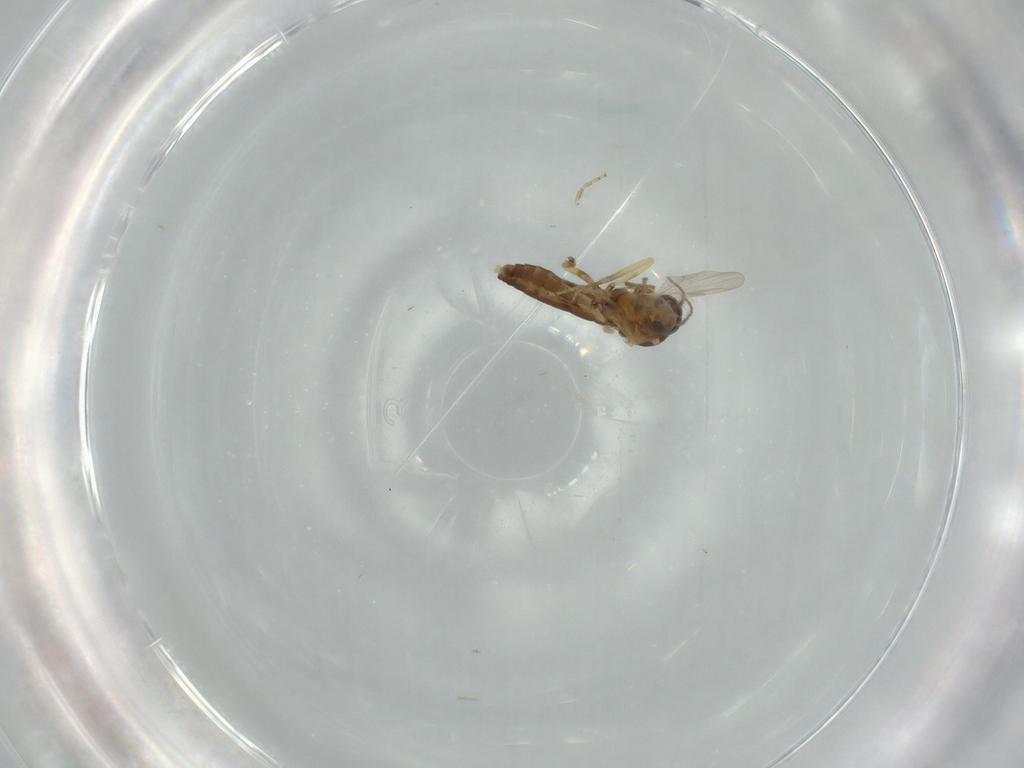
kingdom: Animalia
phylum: Arthropoda
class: Insecta
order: Diptera
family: Ceratopogonidae
